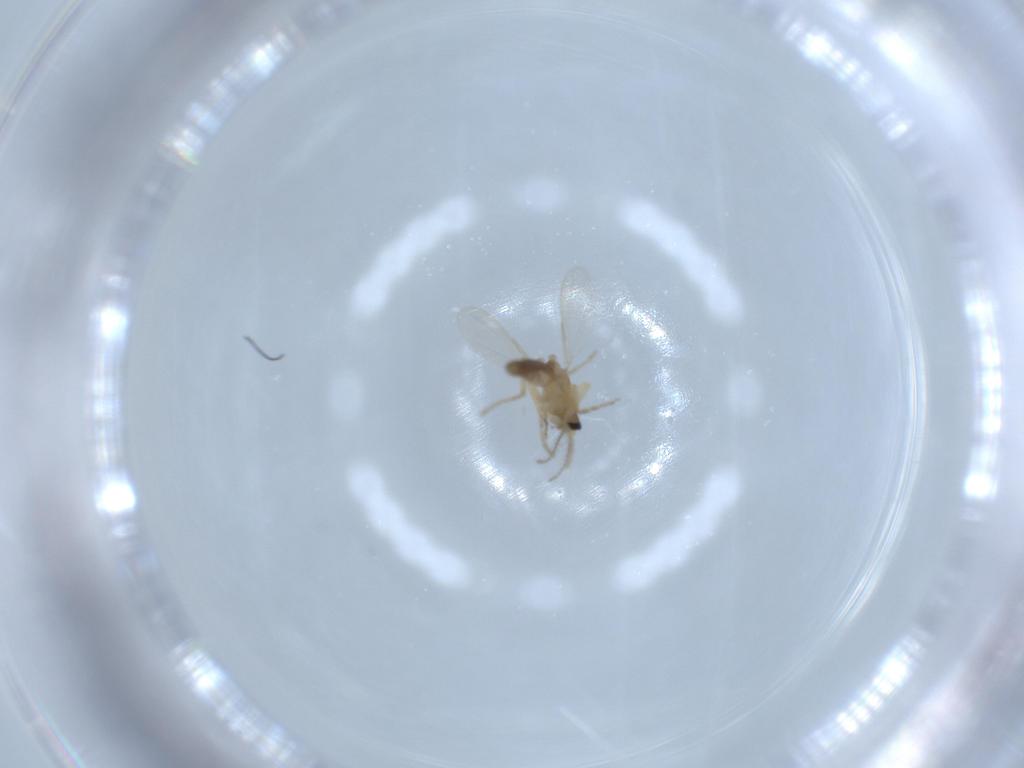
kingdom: Animalia
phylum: Arthropoda
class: Insecta
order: Diptera
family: Ceratopogonidae
